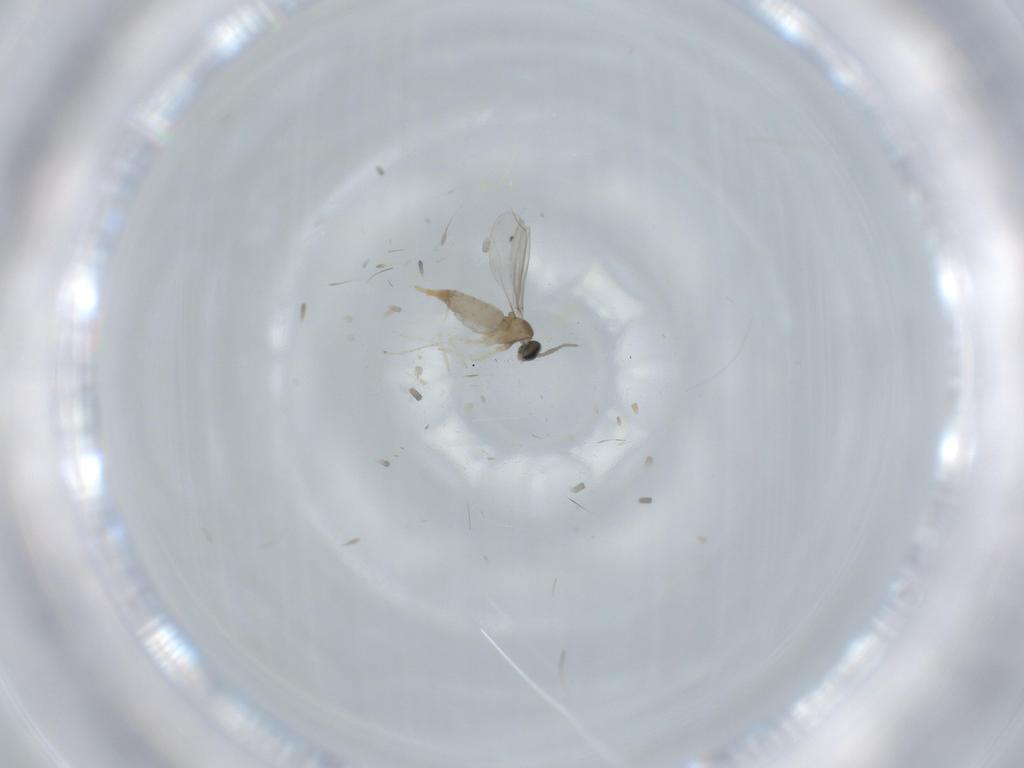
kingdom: Animalia
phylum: Arthropoda
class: Insecta
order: Diptera
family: Cecidomyiidae
